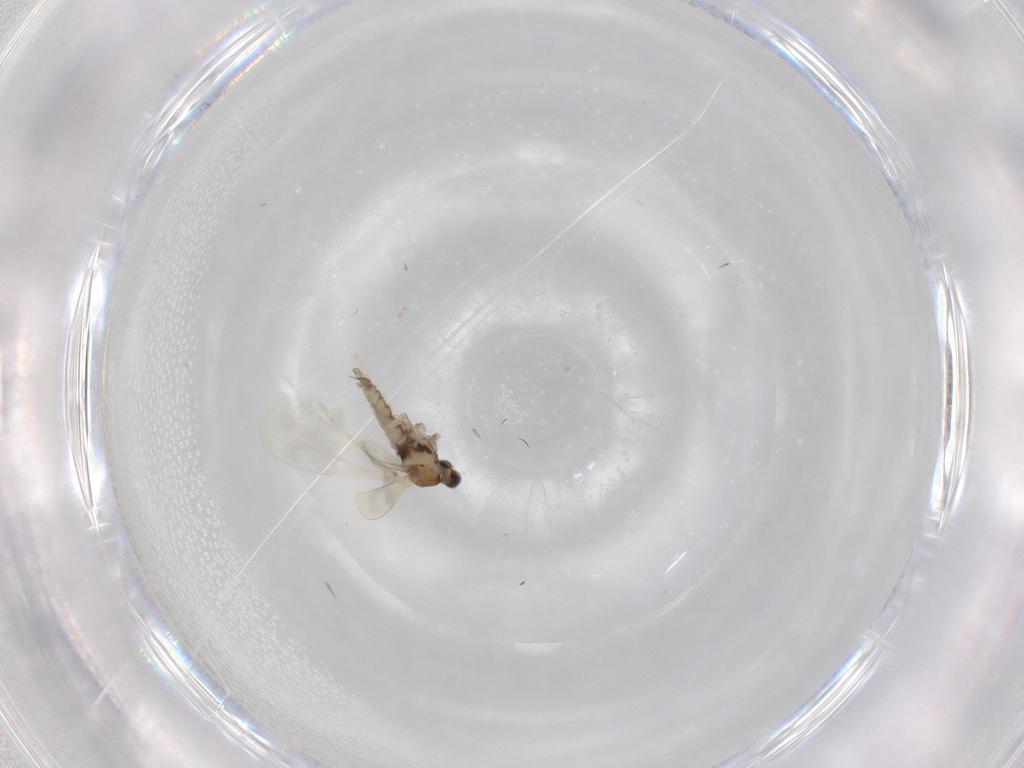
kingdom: Animalia
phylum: Arthropoda
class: Insecta
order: Diptera
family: Cecidomyiidae
